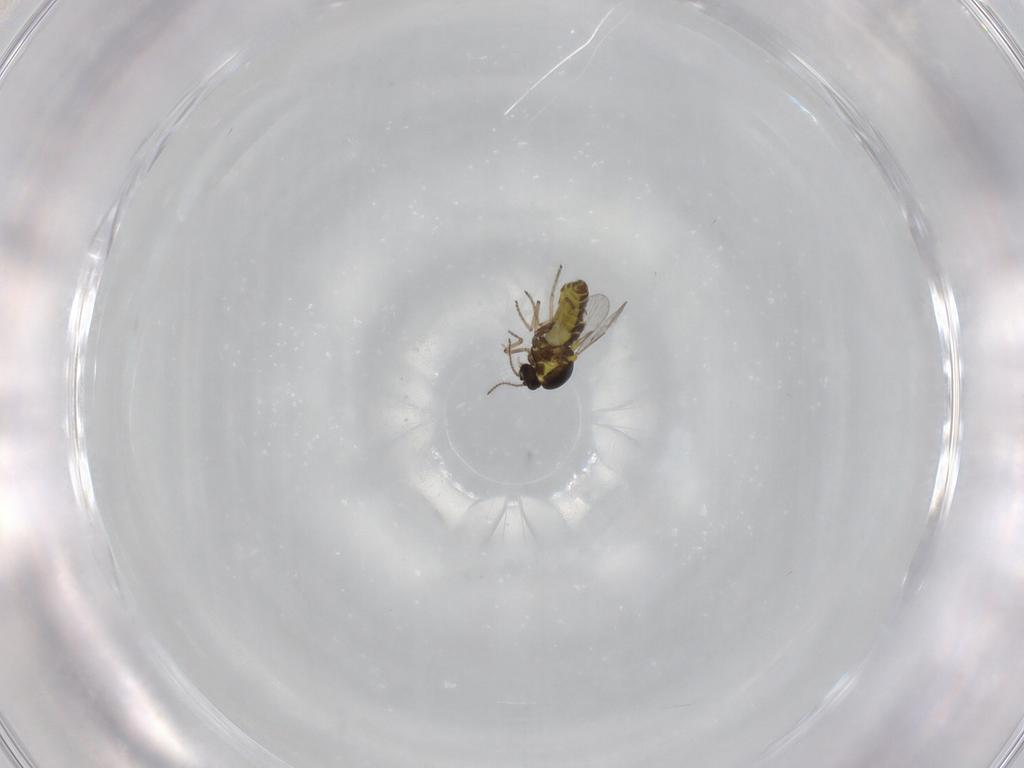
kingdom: Animalia
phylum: Arthropoda
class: Insecta
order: Diptera
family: Ceratopogonidae
